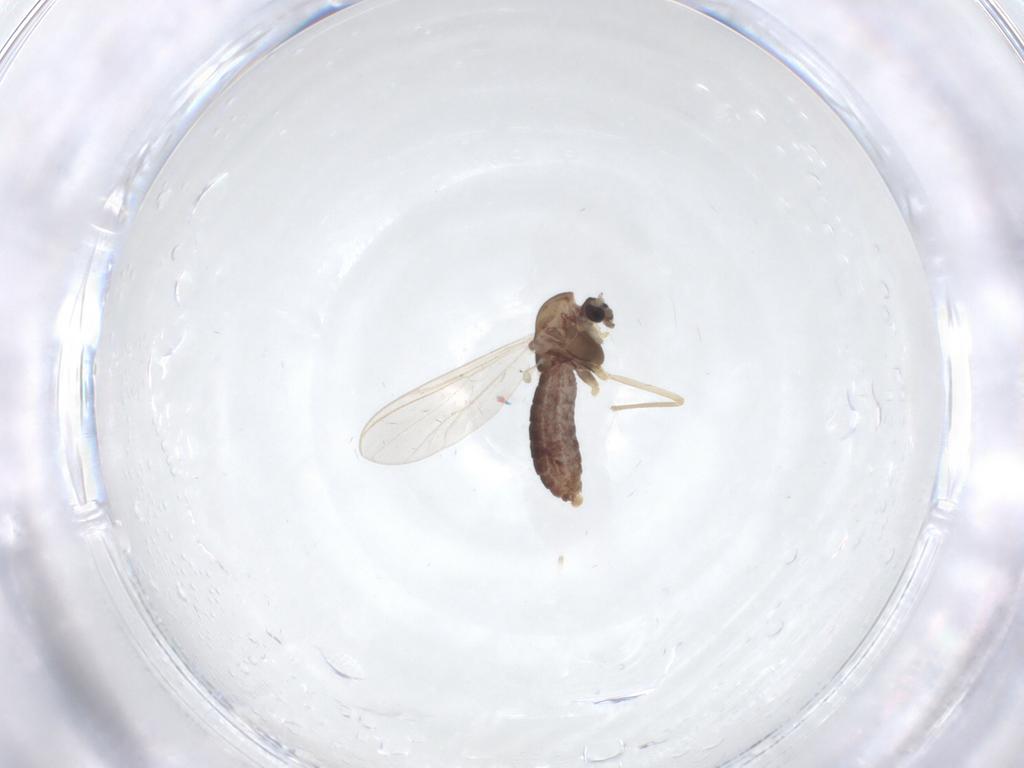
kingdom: Animalia
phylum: Arthropoda
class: Insecta
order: Diptera
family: Chironomidae
